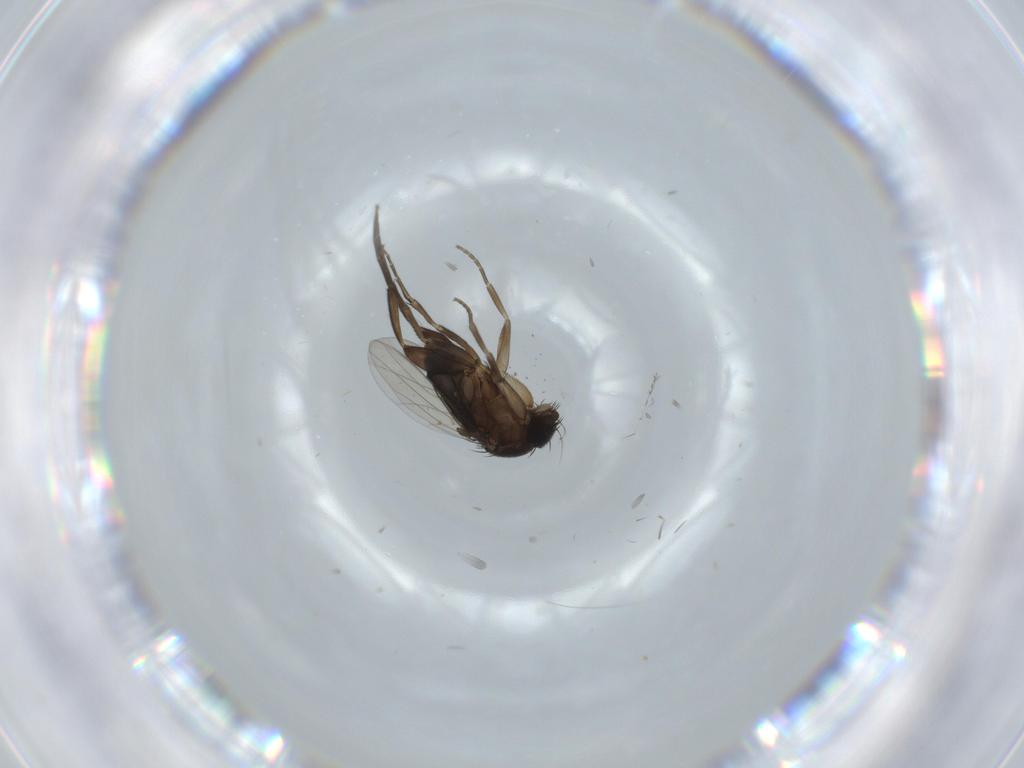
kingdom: Animalia
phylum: Arthropoda
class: Insecta
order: Diptera
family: Phoridae
